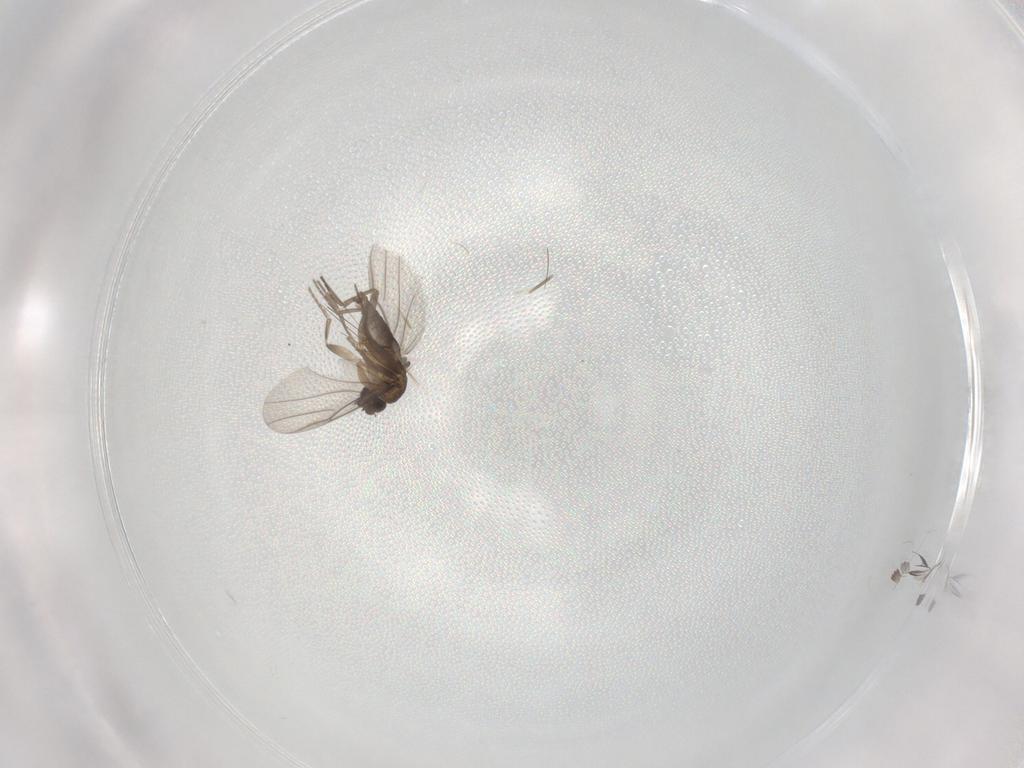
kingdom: Animalia
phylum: Arthropoda
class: Insecta
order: Diptera
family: Phoridae
